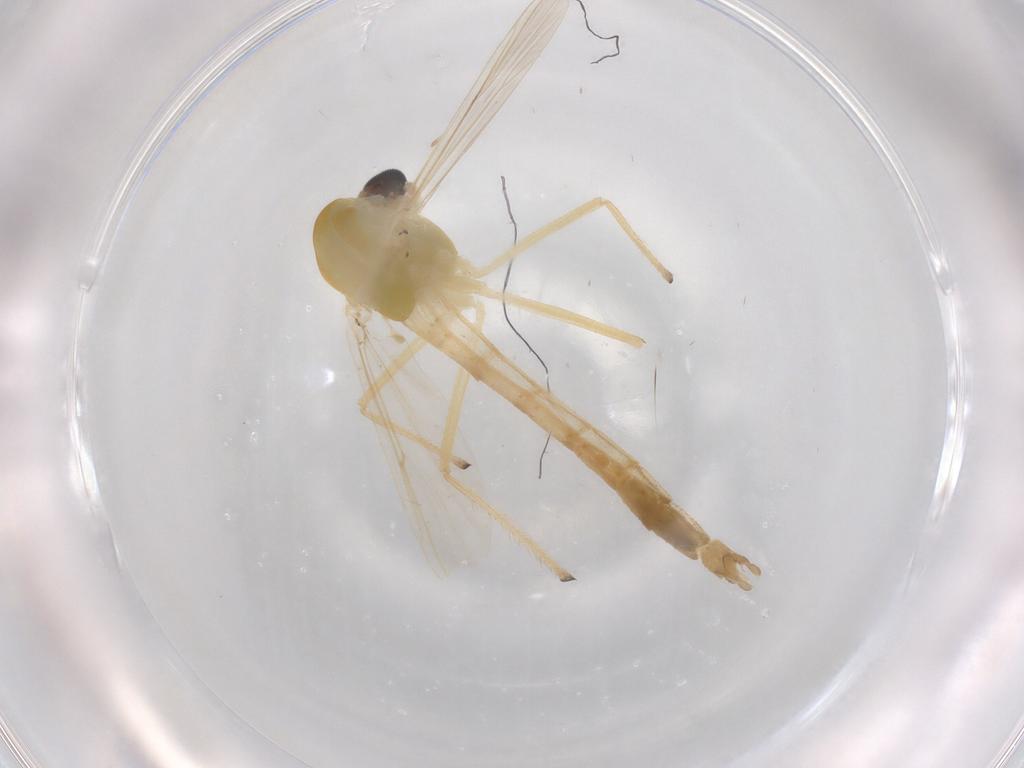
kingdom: Animalia
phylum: Arthropoda
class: Insecta
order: Diptera
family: Chironomidae
